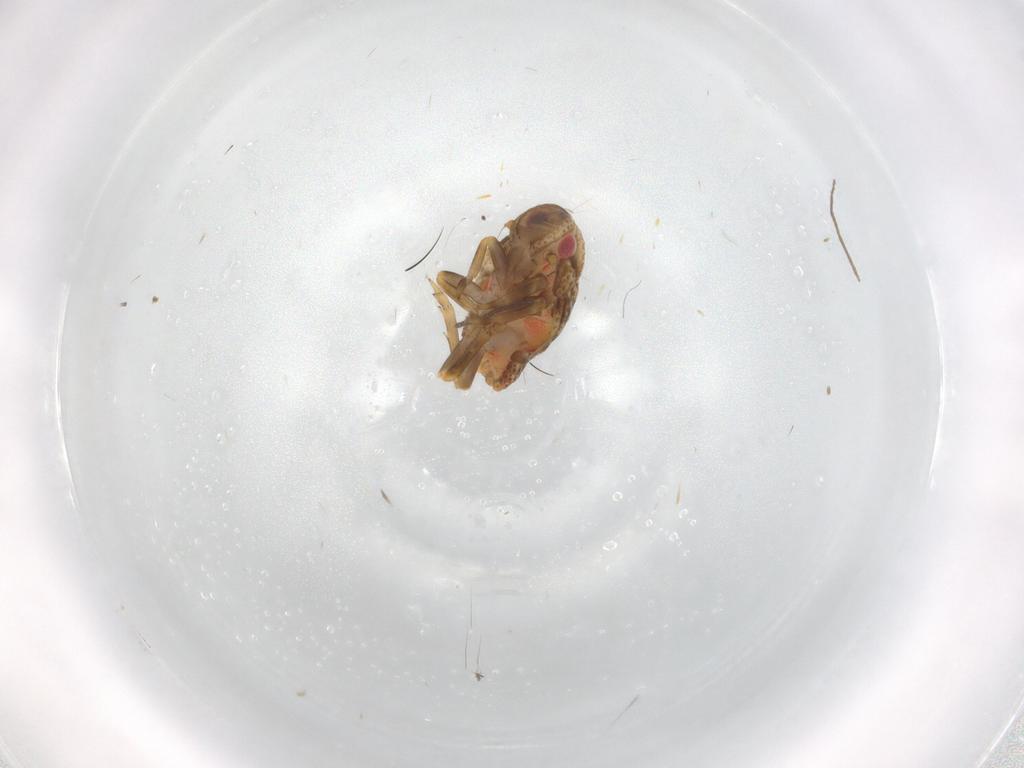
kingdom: Animalia
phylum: Arthropoda
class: Insecta
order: Hemiptera
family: Flatidae
